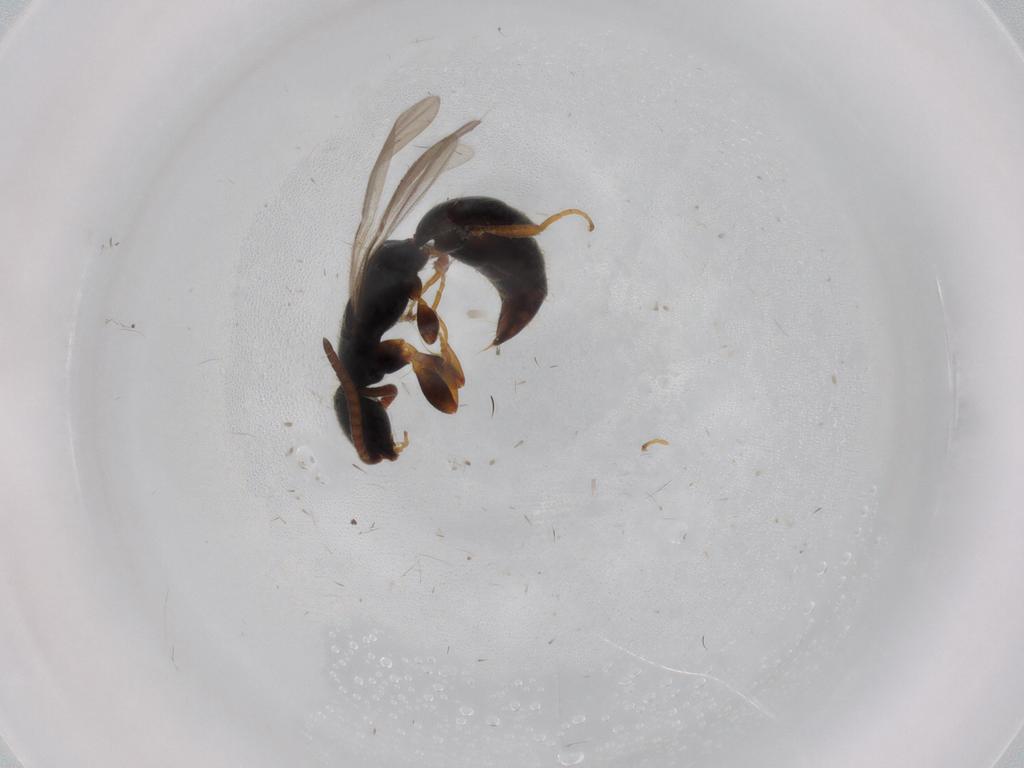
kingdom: Animalia
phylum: Arthropoda
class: Insecta
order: Hymenoptera
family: Bethylidae
